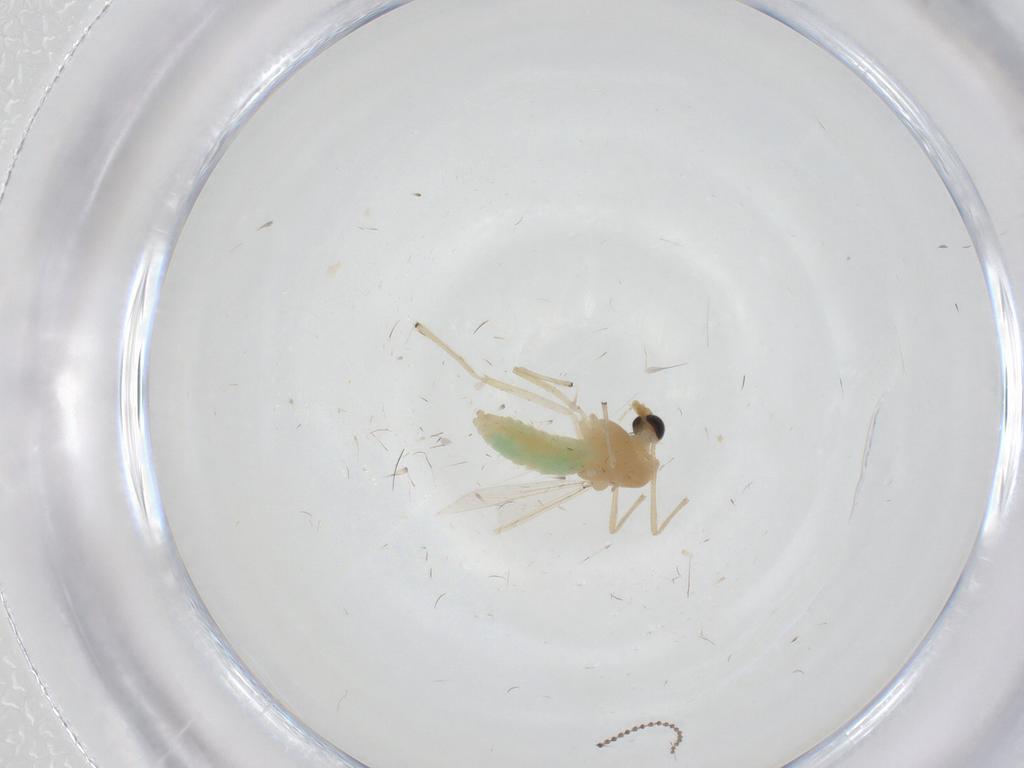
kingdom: Animalia
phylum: Arthropoda
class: Insecta
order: Diptera
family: Chironomidae
